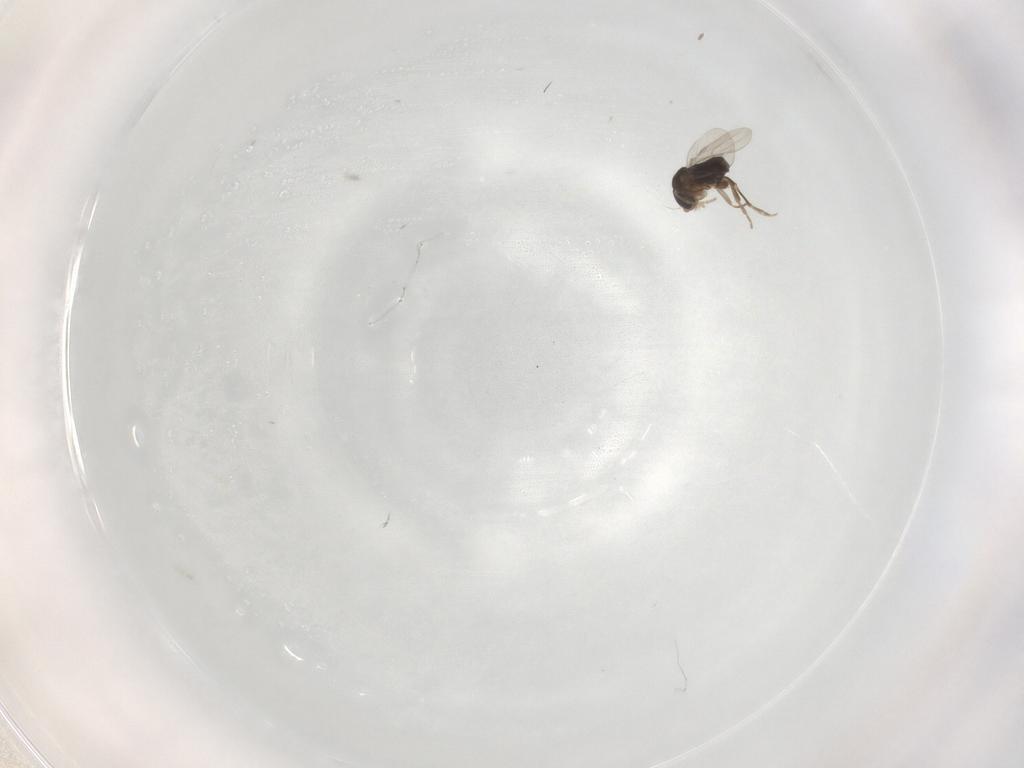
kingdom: Animalia
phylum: Arthropoda
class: Insecta
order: Diptera
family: Phoridae
